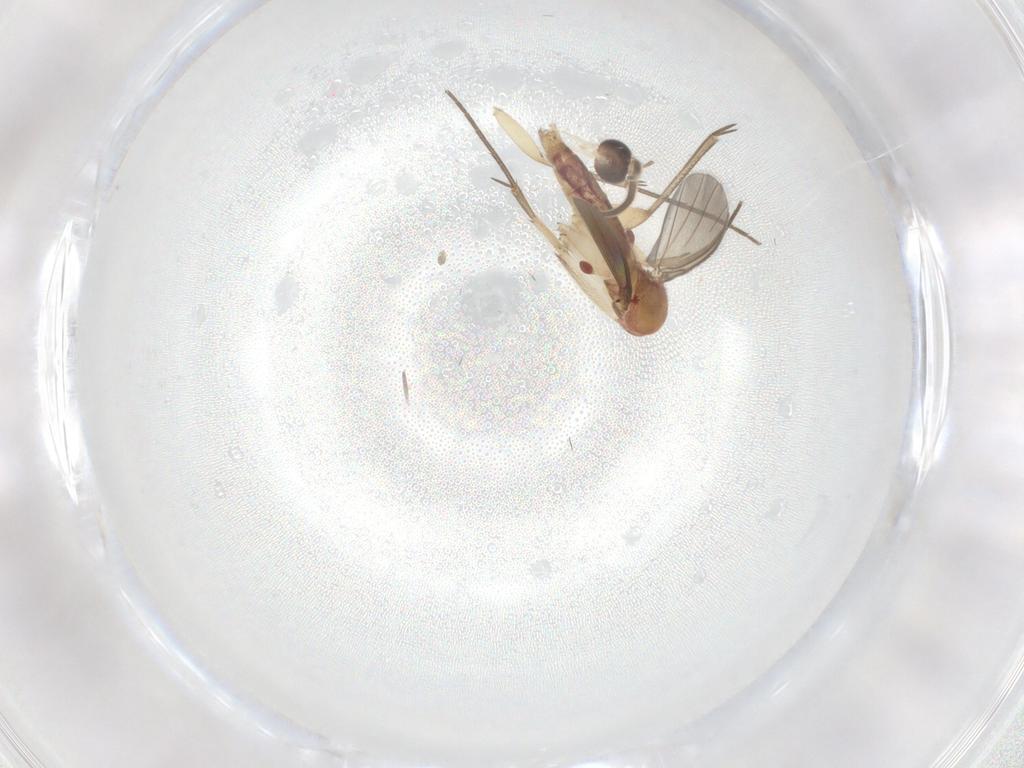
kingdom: Animalia
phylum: Arthropoda
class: Insecta
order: Diptera
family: Mycetophilidae
